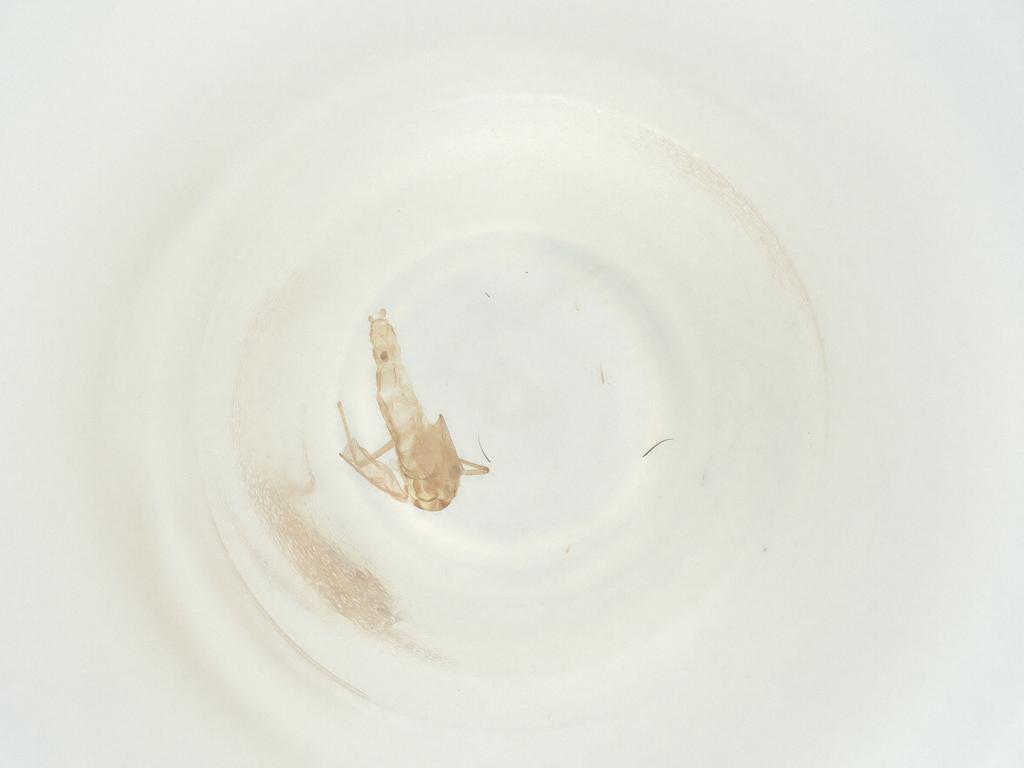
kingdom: Animalia
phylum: Arthropoda
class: Insecta
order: Diptera
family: Chironomidae
